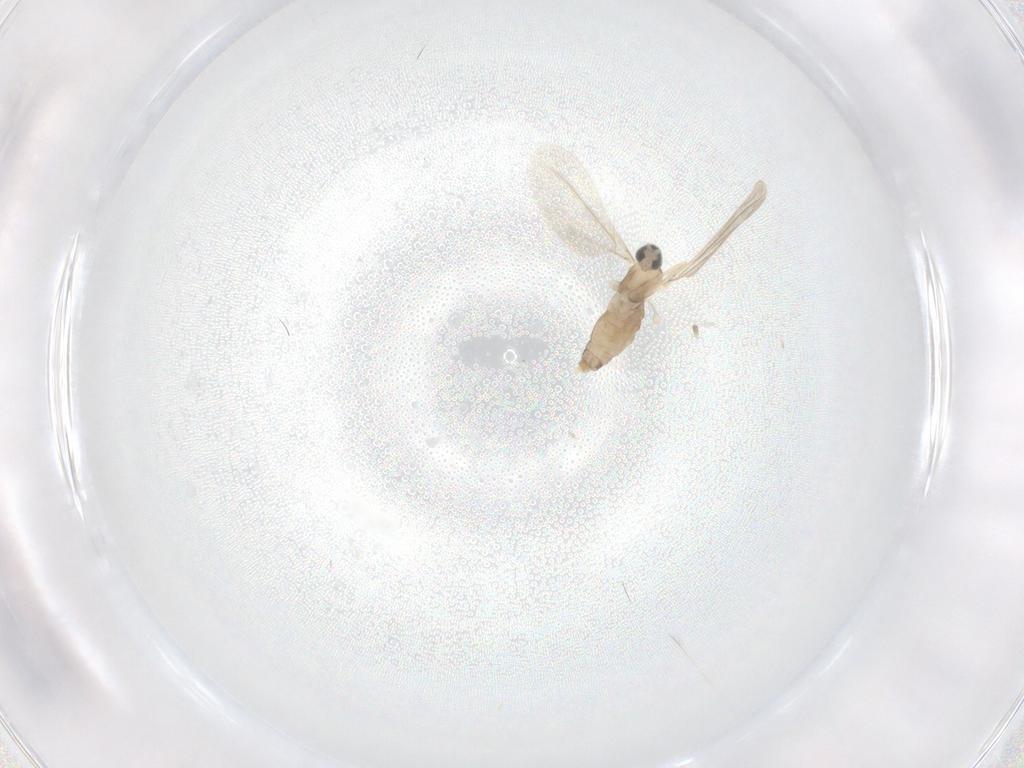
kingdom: Animalia
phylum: Arthropoda
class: Insecta
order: Diptera
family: Cecidomyiidae
